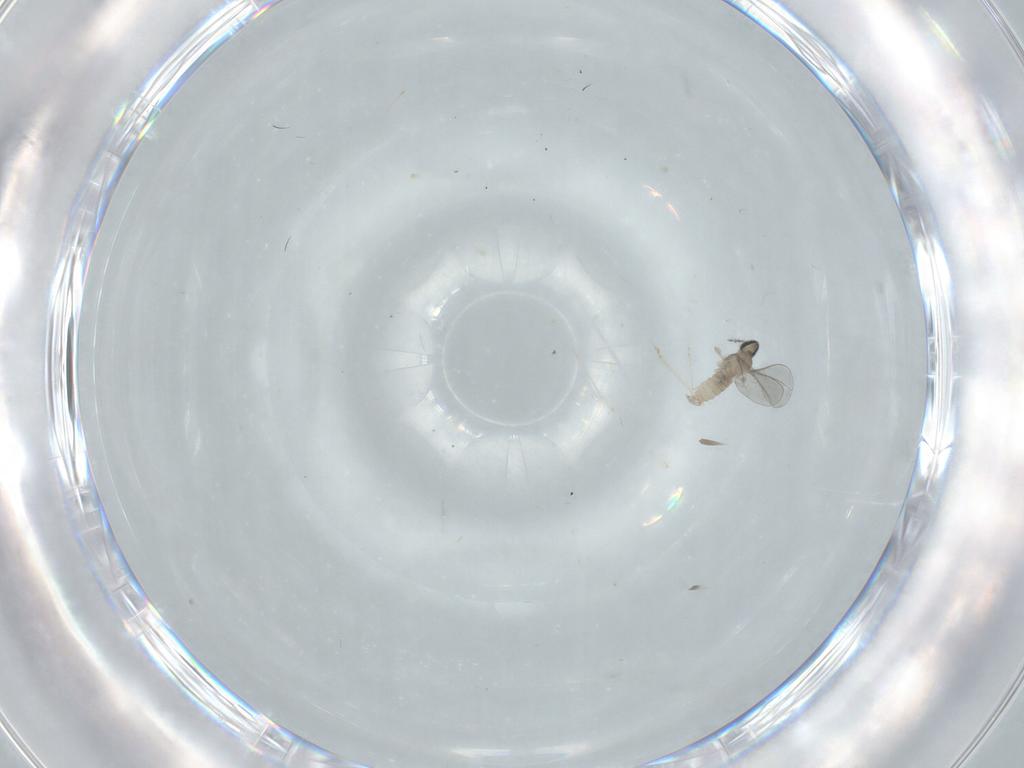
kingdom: Animalia
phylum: Arthropoda
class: Insecta
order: Diptera
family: Cecidomyiidae
